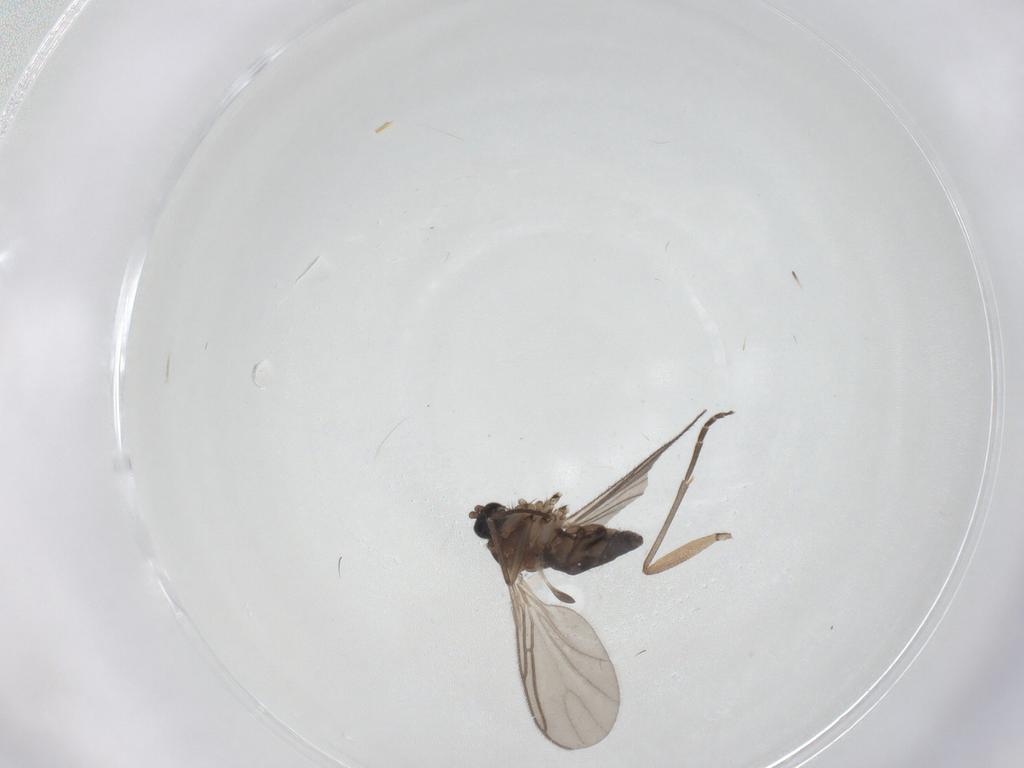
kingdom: Animalia
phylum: Arthropoda
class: Insecta
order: Diptera
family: Sciaridae
